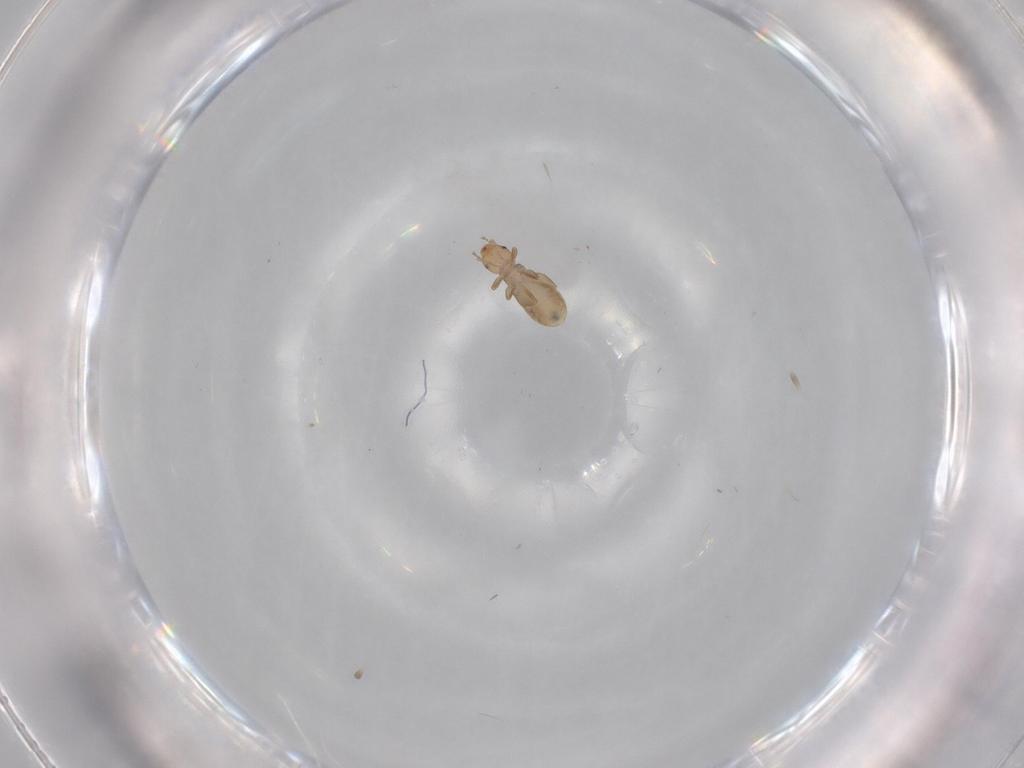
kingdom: Animalia
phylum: Arthropoda
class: Insecta
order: Psocodea
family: Liposcelididae
